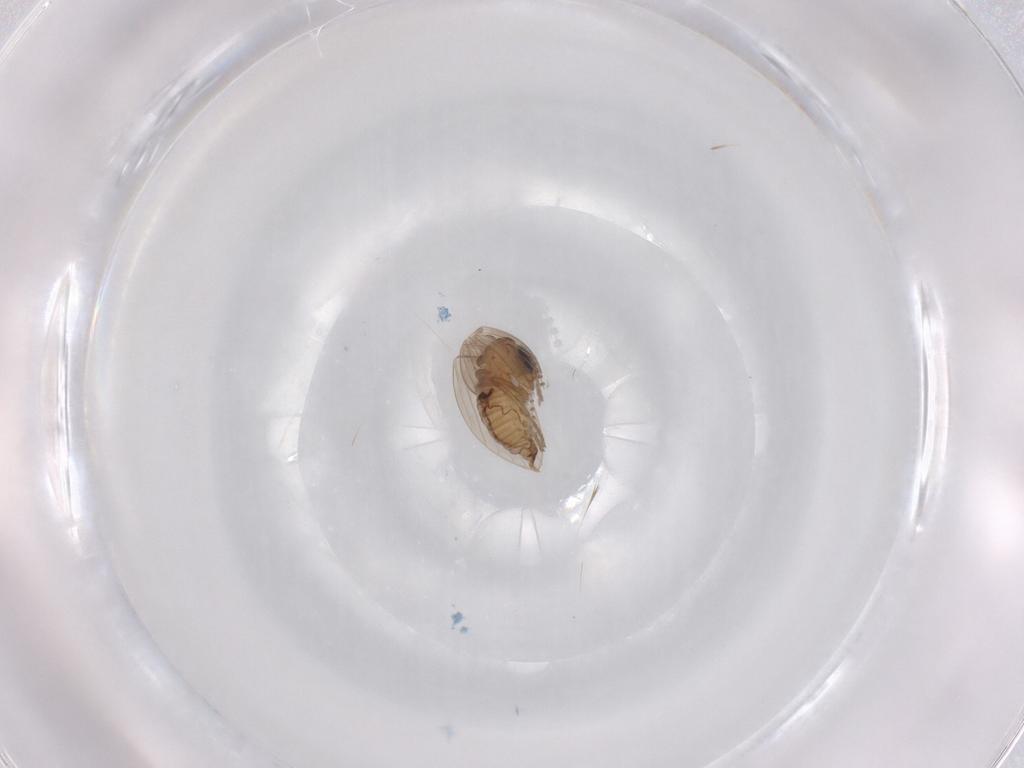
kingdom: Animalia
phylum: Arthropoda
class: Insecta
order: Diptera
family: Psychodidae
